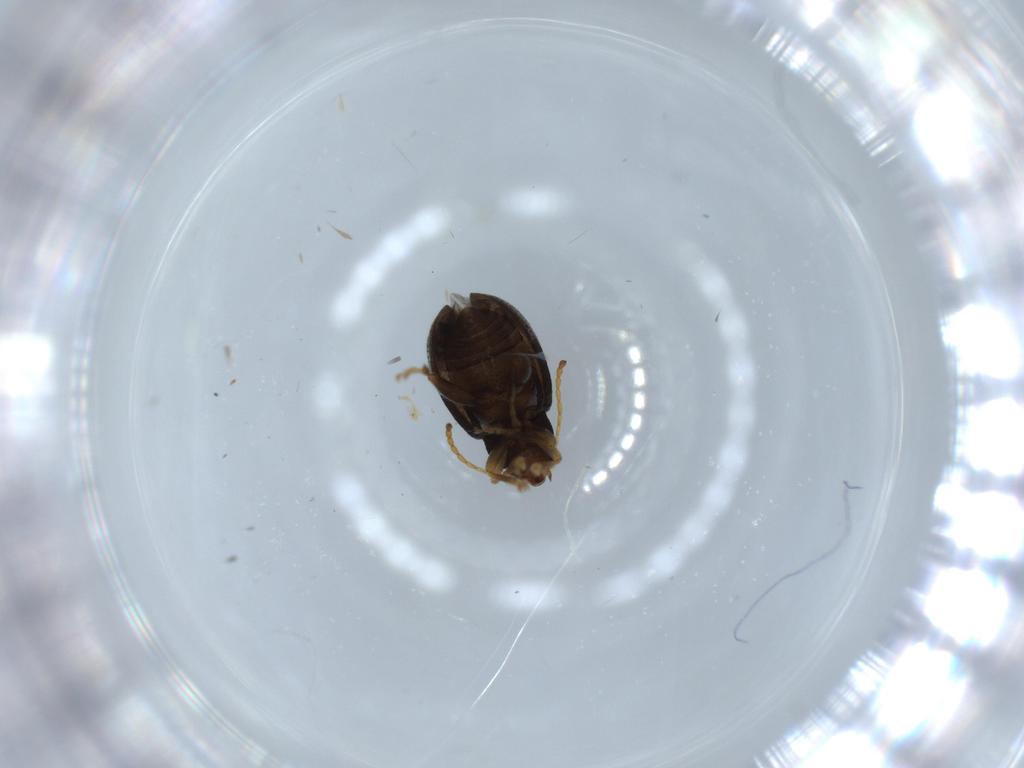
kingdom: Animalia
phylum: Arthropoda
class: Insecta
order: Coleoptera
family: Chrysomelidae
